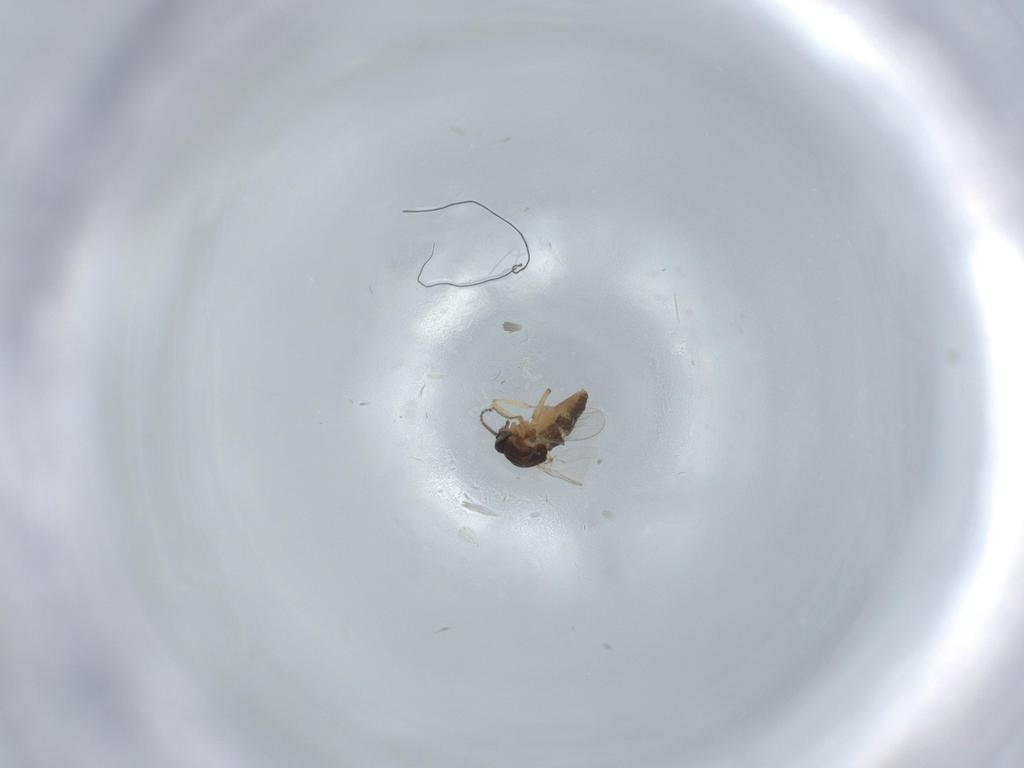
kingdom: Animalia
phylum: Arthropoda
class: Insecta
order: Diptera
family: Ceratopogonidae
